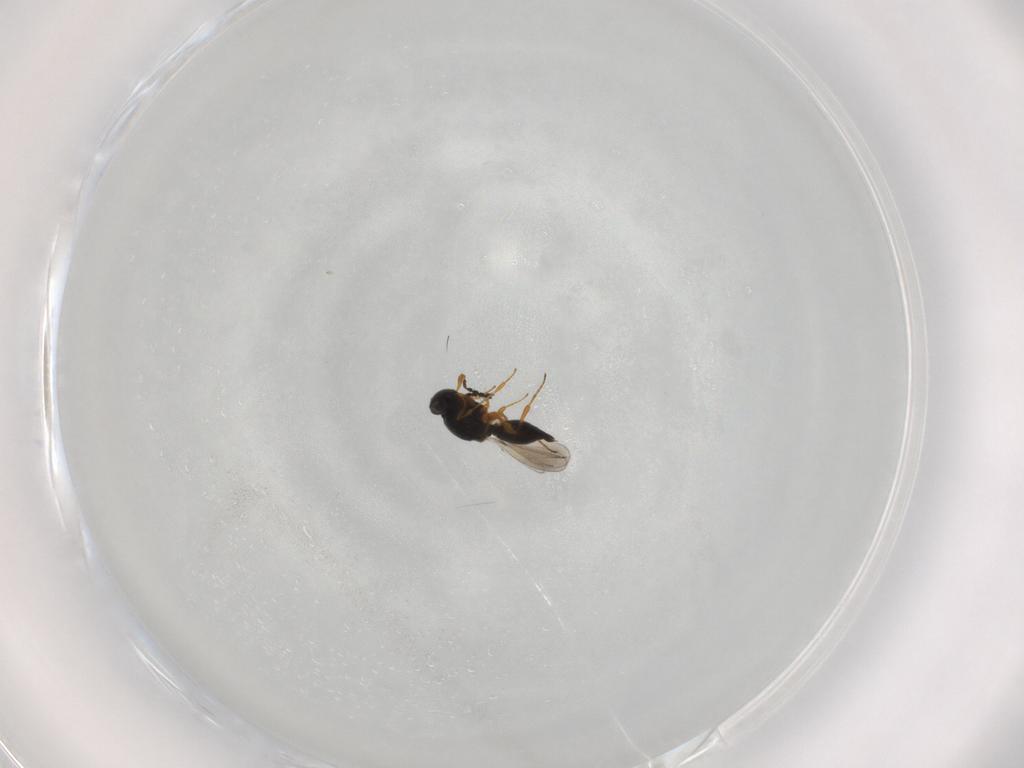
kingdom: Animalia
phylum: Arthropoda
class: Insecta
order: Hymenoptera
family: Platygastridae
